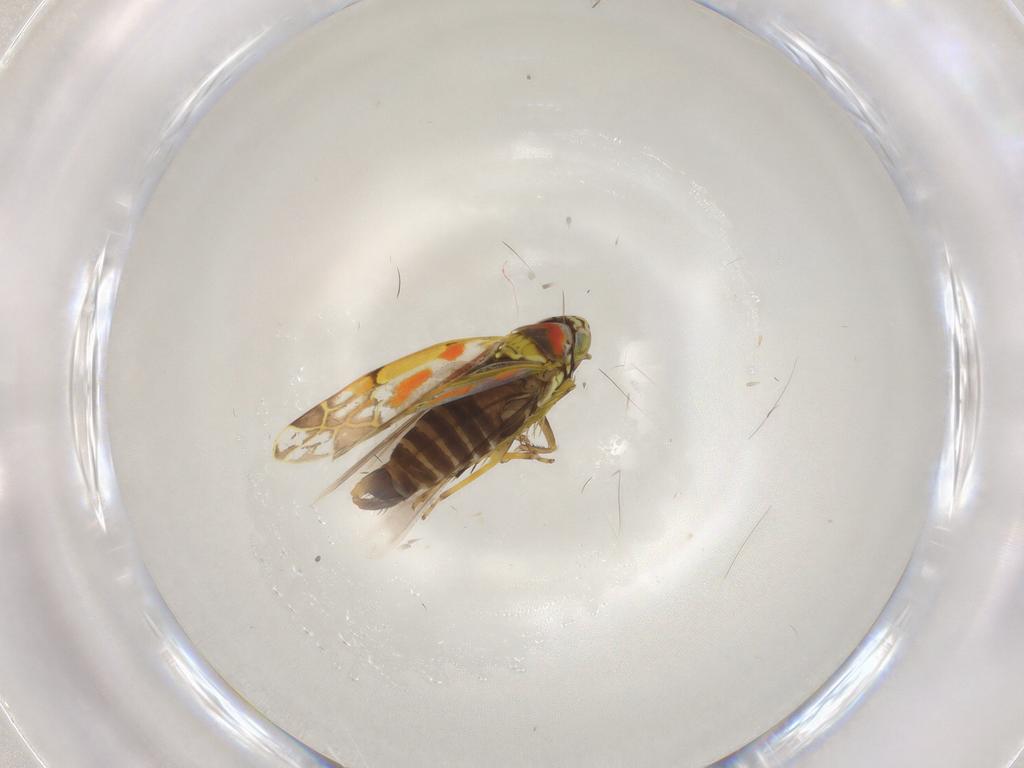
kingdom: Animalia
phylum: Arthropoda
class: Insecta
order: Hemiptera
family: Cicadellidae
